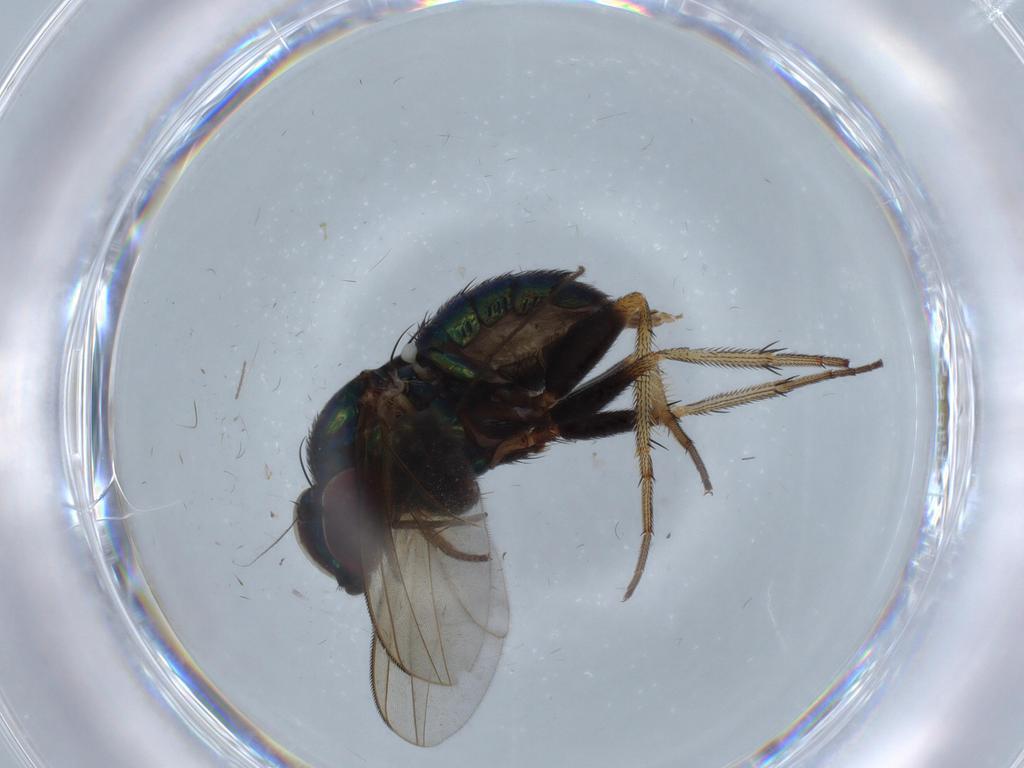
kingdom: Animalia
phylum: Arthropoda
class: Insecta
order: Diptera
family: Dolichopodidae
